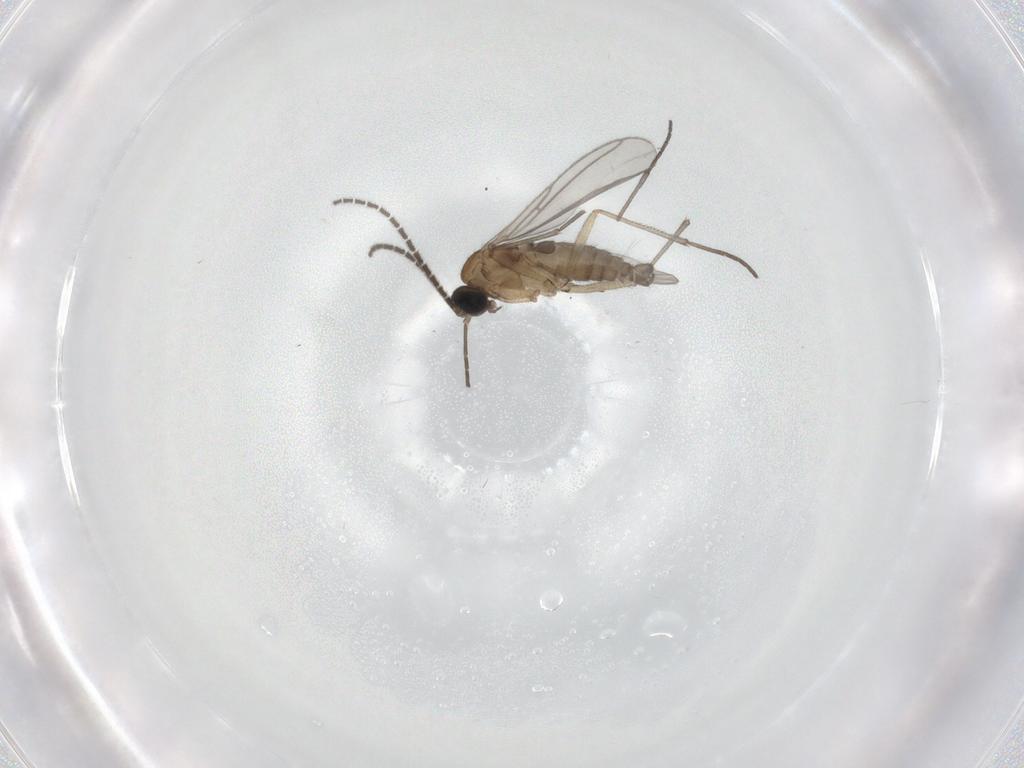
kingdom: Animalia
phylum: Arthropoda
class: Insecta
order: Diptera
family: Sciaridae
